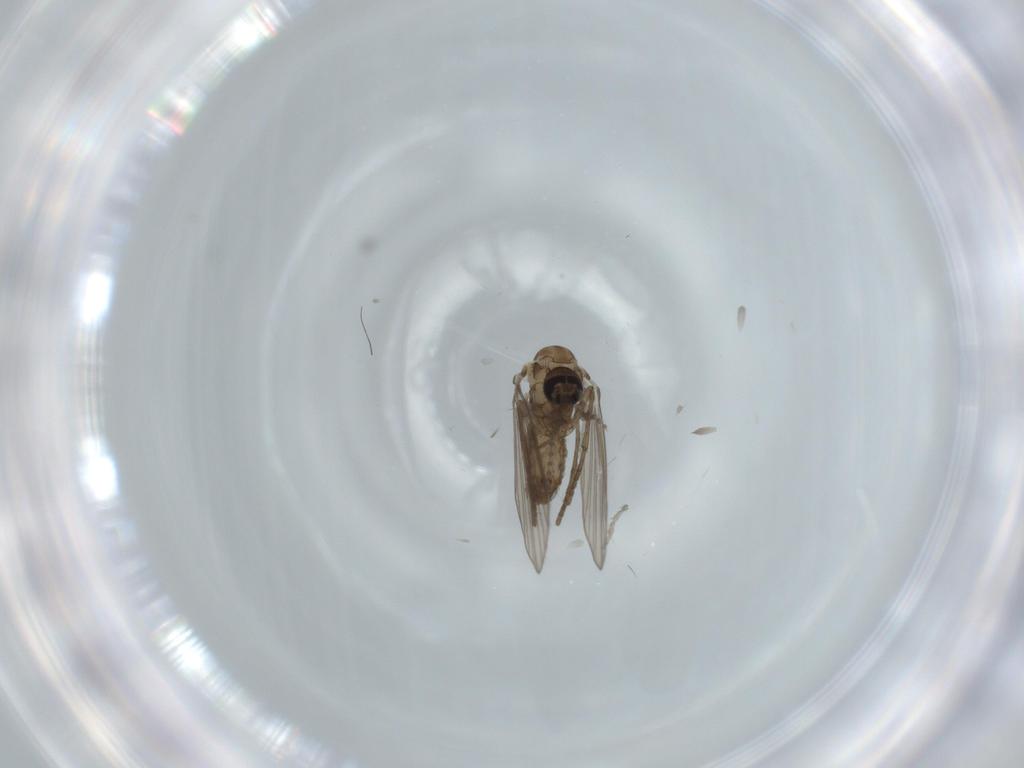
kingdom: Animalia
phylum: Arthropoda
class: Insecta
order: Diptera
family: Psychodidae
